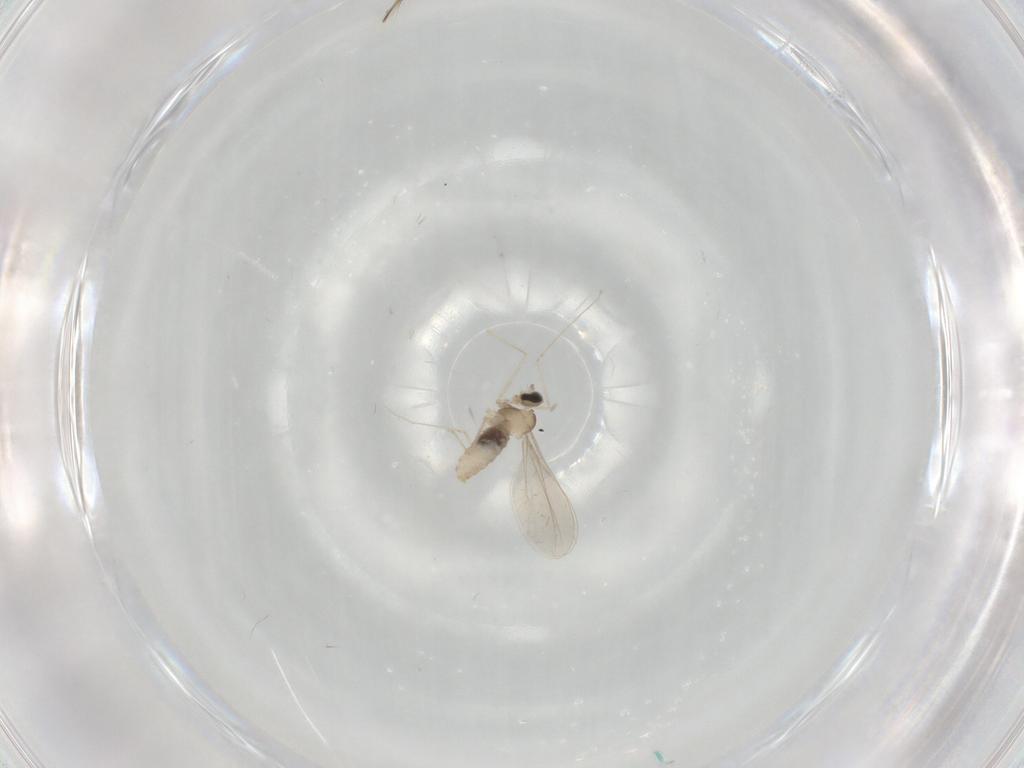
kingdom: Animalia
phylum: Arthropoda
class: Insecta
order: Diptera
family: Cecidomyiidae
